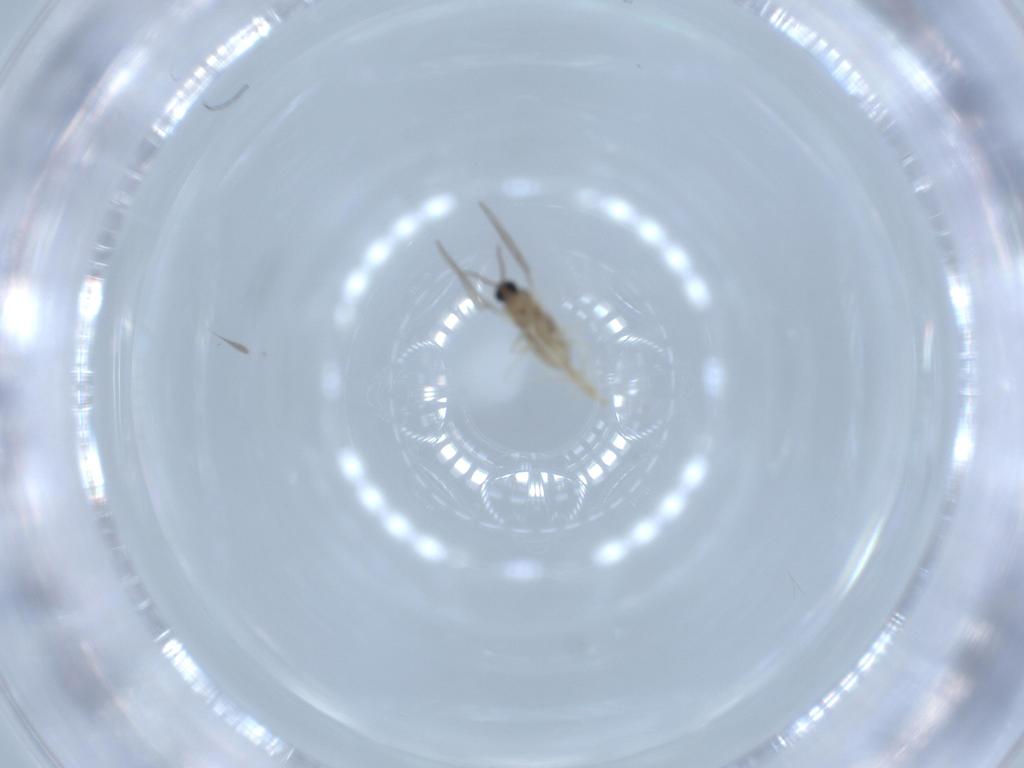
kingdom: Animalia
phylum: Arthropoda
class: Insecta
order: Diptera
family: Cecidomyiidae
